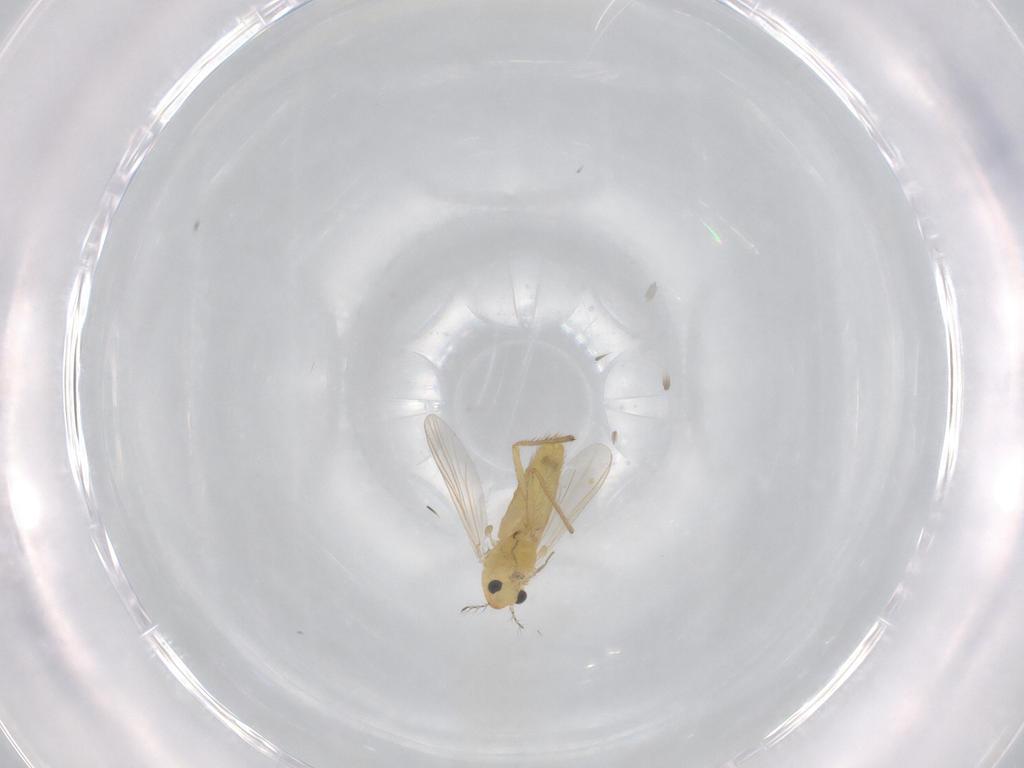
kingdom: Animalia
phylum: Arthropoda
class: Insecta
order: Diptera
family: Chironomidae
